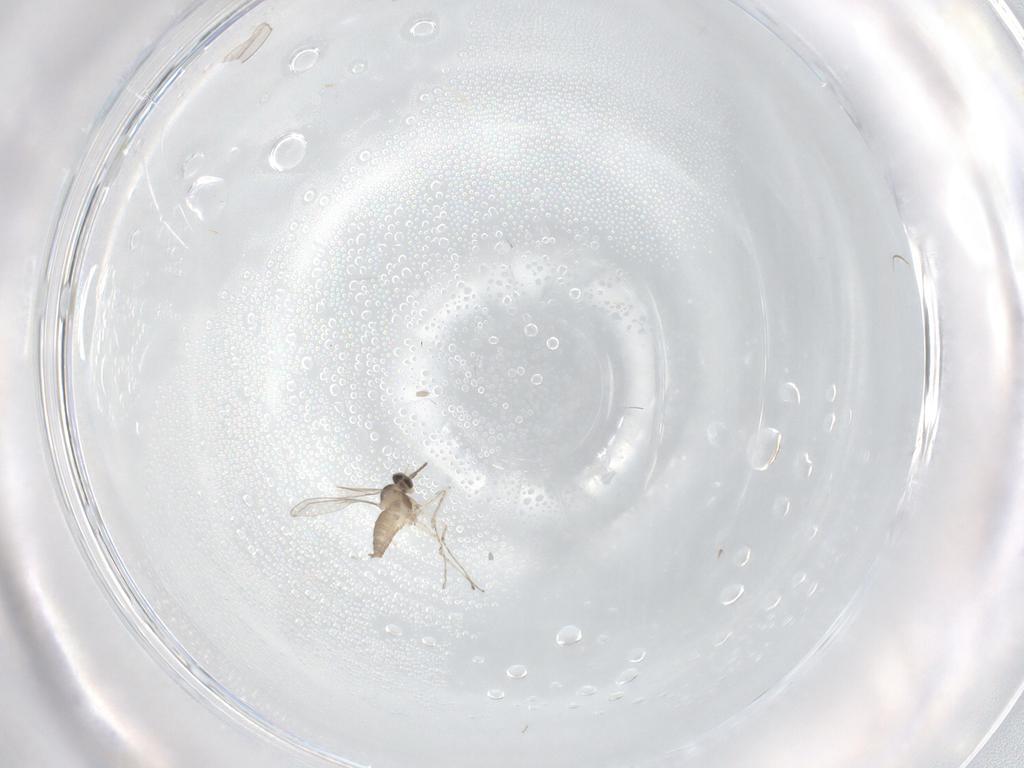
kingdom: Animalia
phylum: Arthropoda
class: Insecta
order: Diptera
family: Cecidomyiidae
